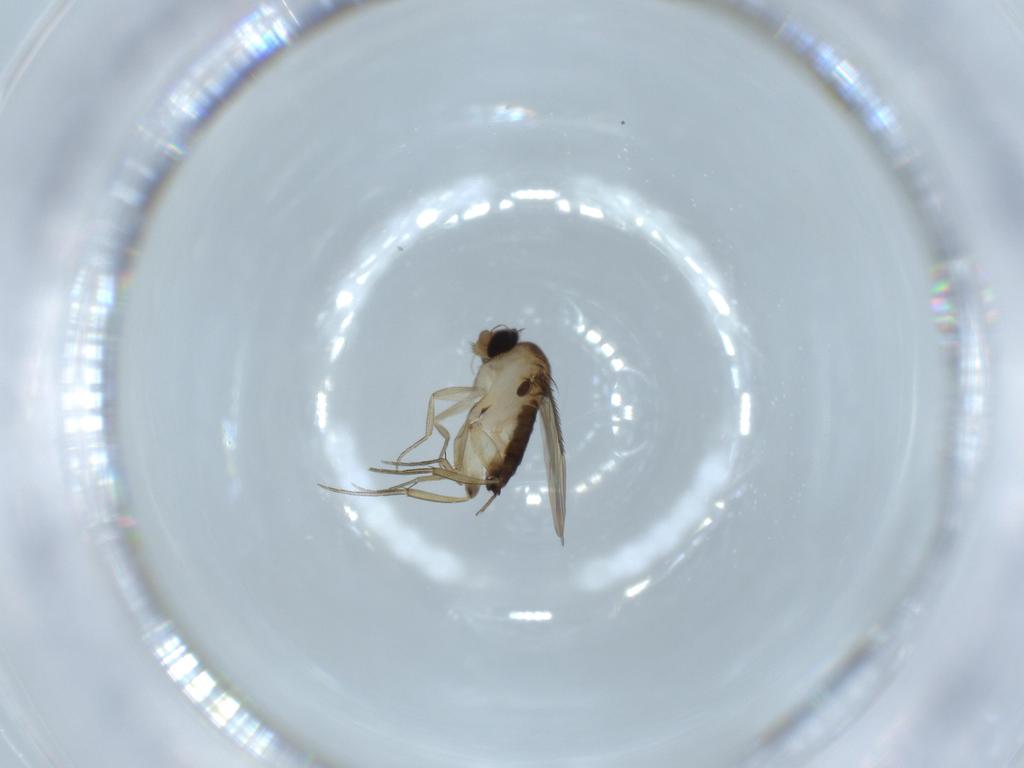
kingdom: Animalia
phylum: Arthropoda
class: Insecta
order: Diptera
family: Phoridae
